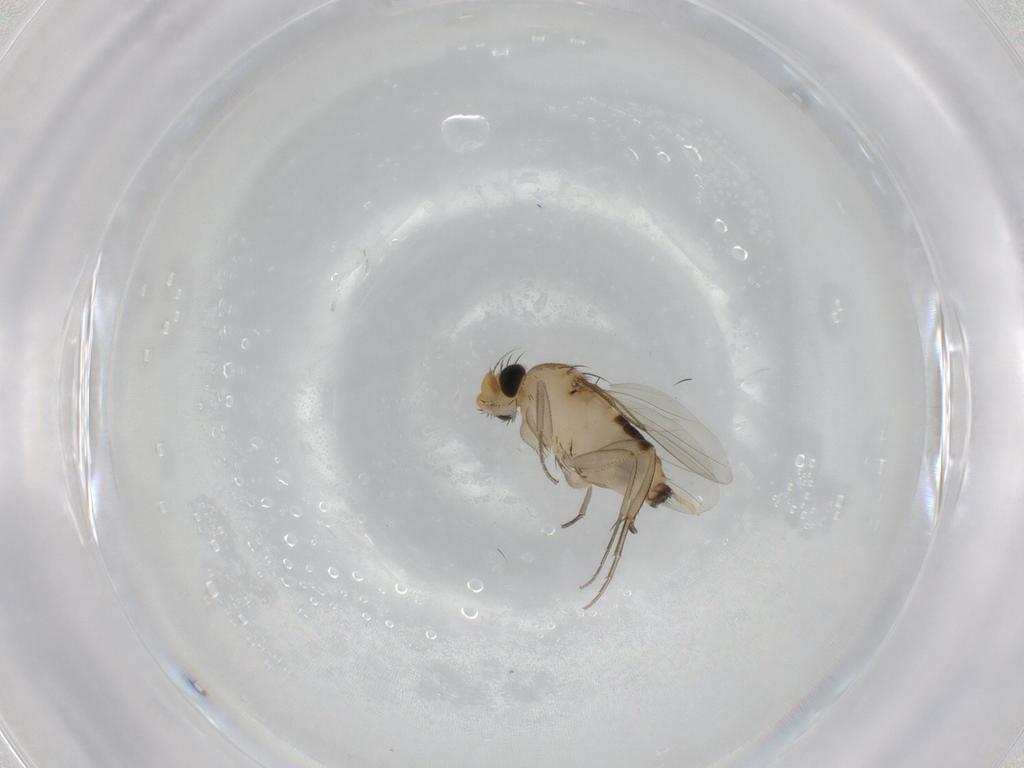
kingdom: Animalia
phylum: Arthropoda
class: Insecta
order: Diptera
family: Phoridae
